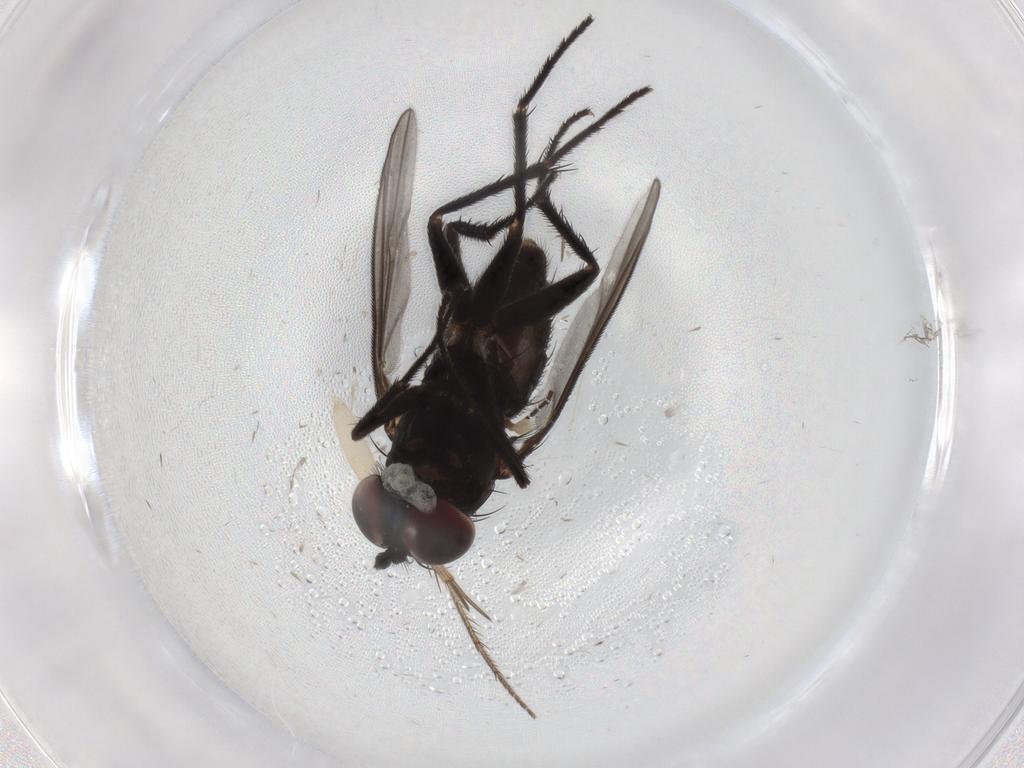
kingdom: Animalia
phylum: Arthropoda
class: Insecta
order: Diptera
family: Dolichopodidae
